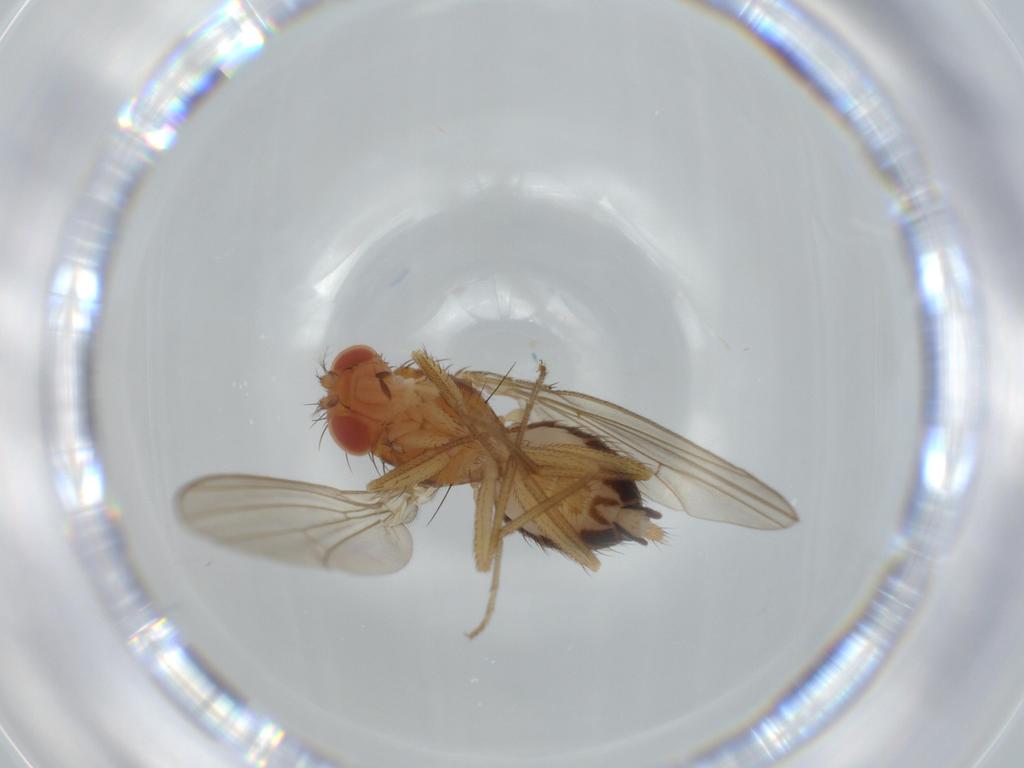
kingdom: Animalia
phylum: Arthropoda
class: Insecta
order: Diptera
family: Drosophilidae
